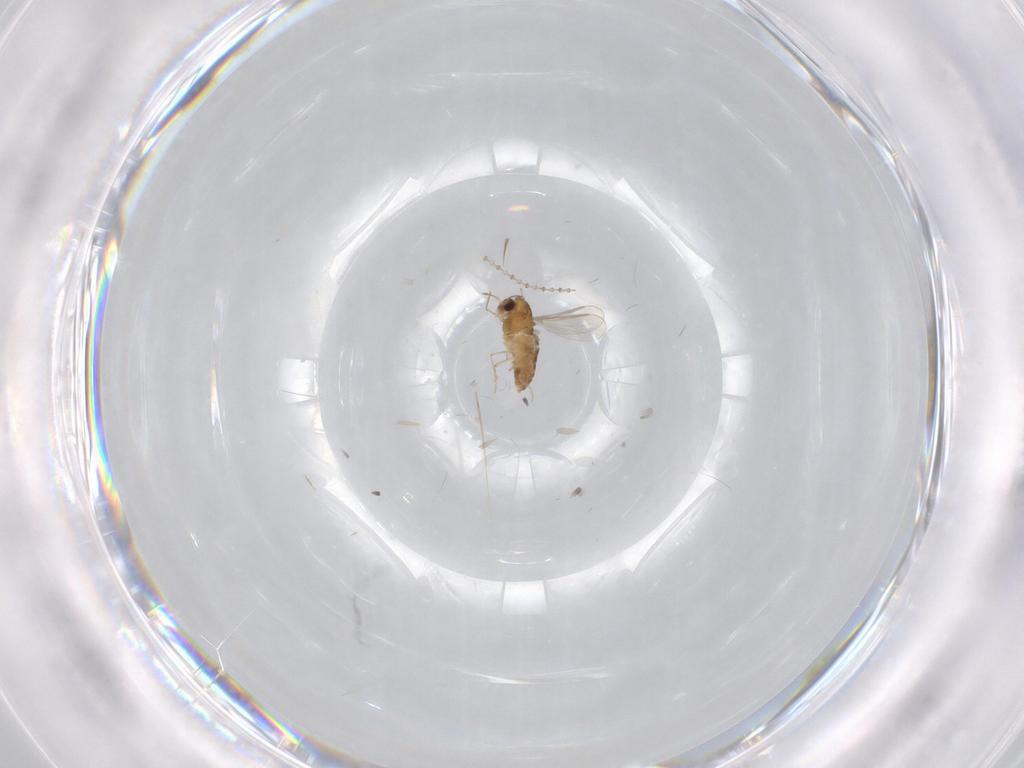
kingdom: Animalia
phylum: Arthropoda
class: Insecta
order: Diptera
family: Chironomidae
